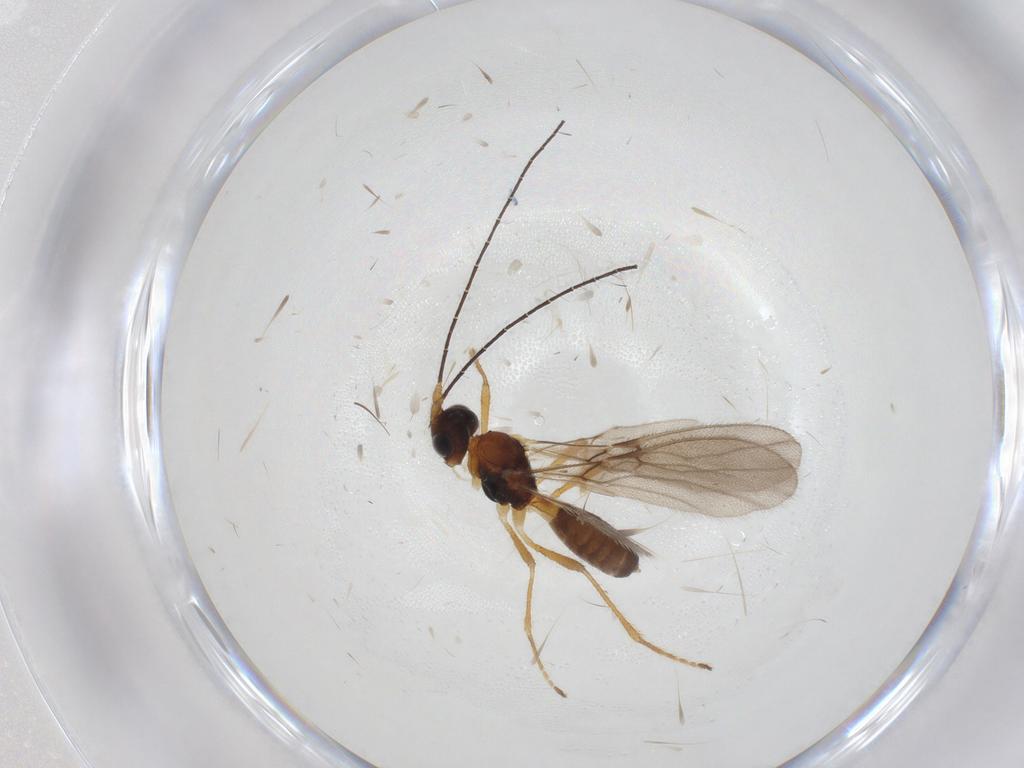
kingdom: Animalia
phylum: Arthropoda
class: Insecta
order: Hymenoptera
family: Braconidae
